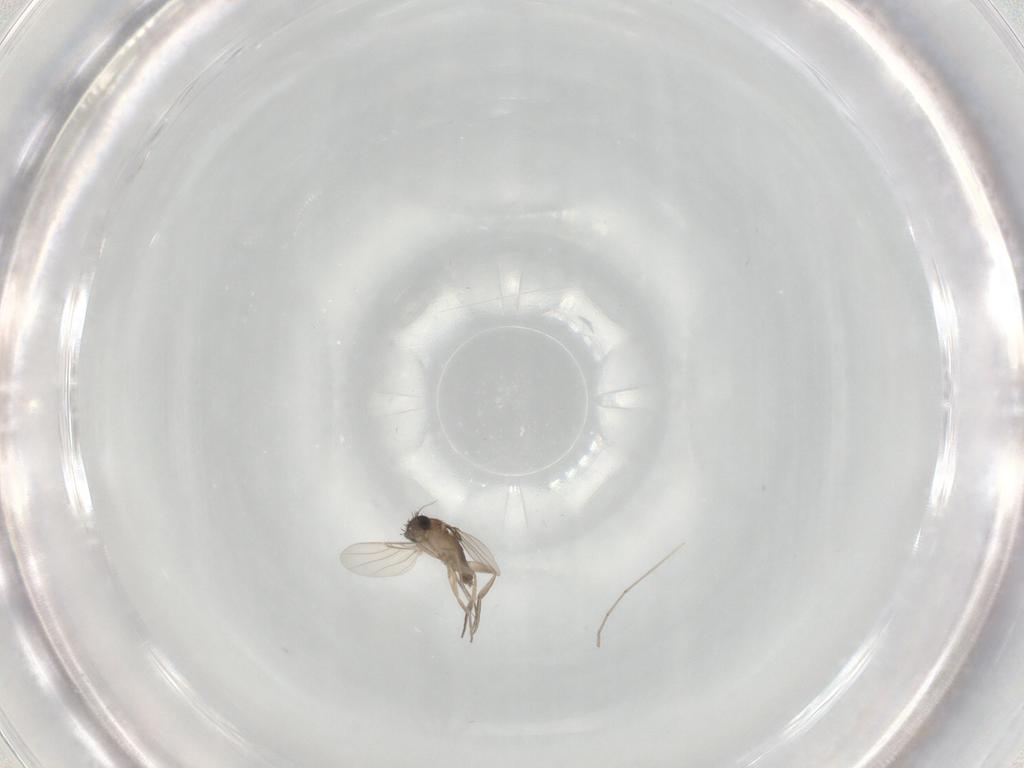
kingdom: Animalia
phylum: Arthropoda
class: Insecta
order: Diptera
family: Phoridae
